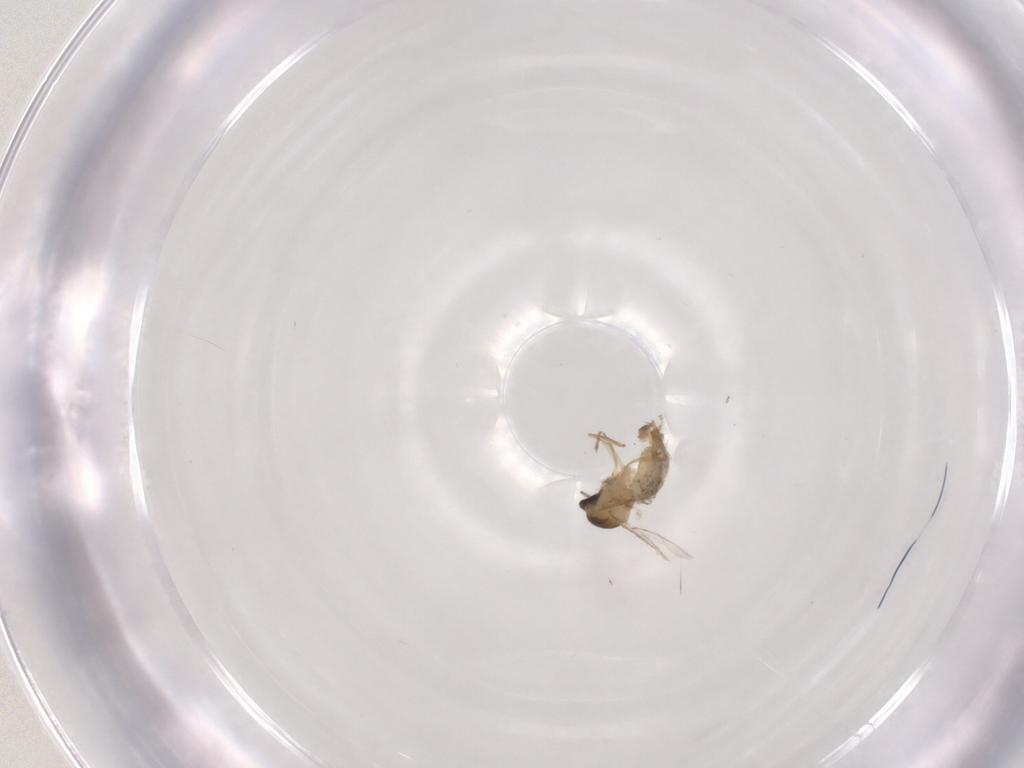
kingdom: Animalia
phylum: Arthropoda
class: Insecta
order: Diptera
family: Cecidomyiidae
